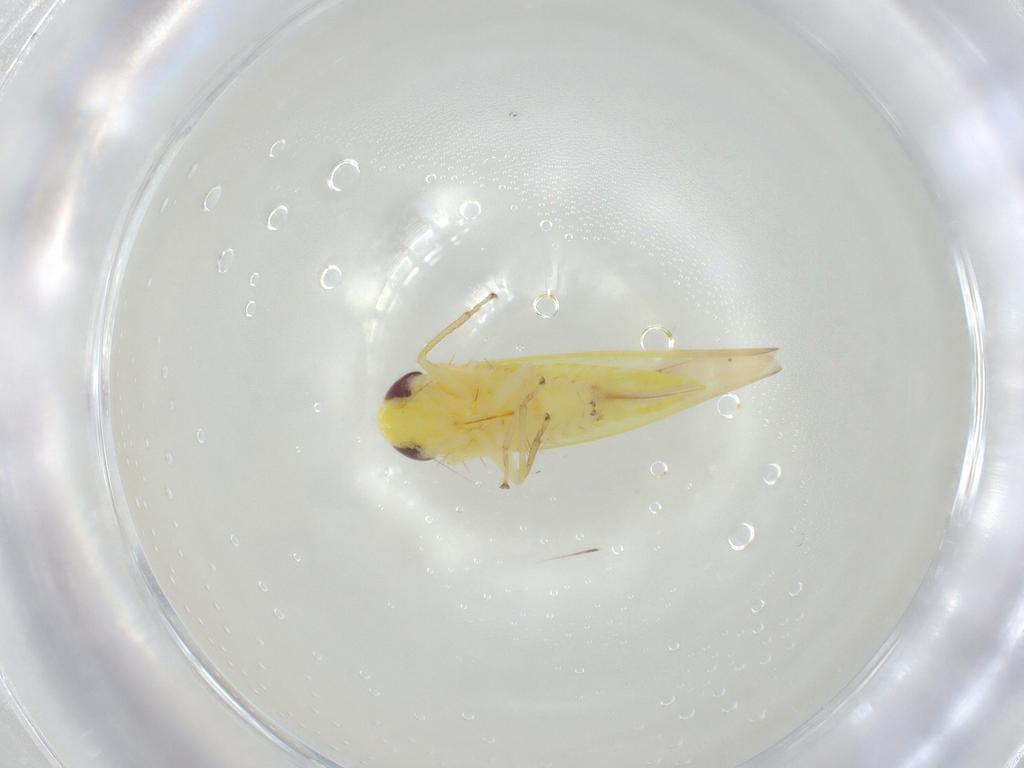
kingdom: Animalia
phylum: Arthropoda
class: Insecta
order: Hemiptera
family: Cicadellidae
